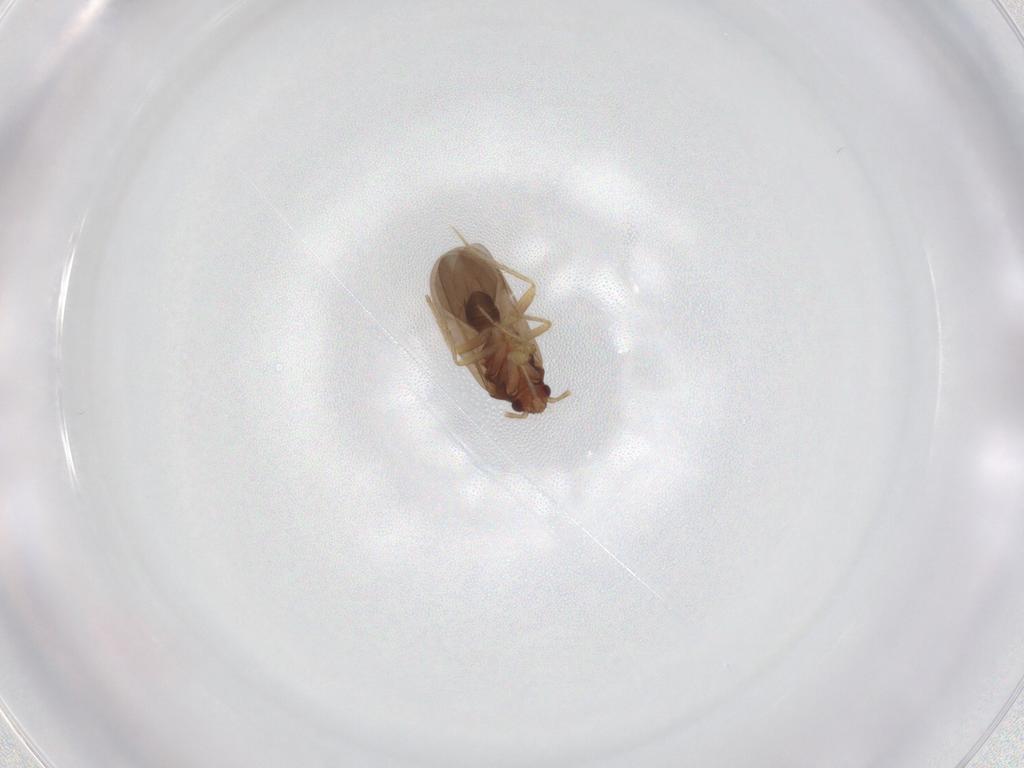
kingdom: Animalia
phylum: Arthropoda
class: Insecta
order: Hemiptera
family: Ceratocombidae
